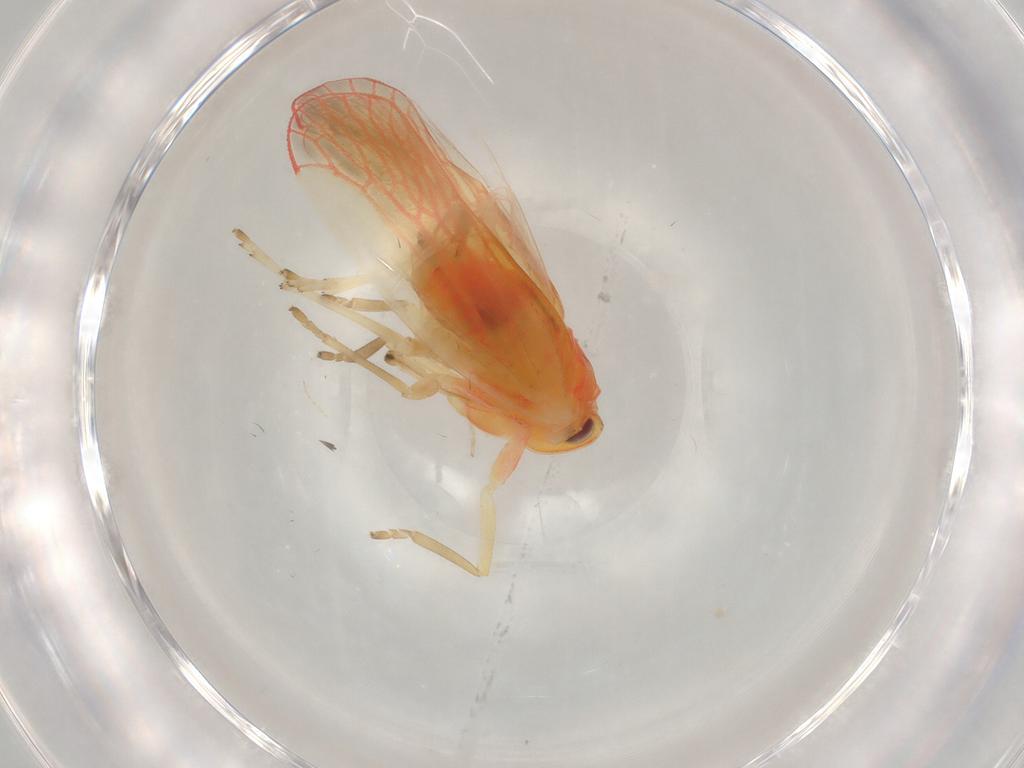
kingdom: Animalia
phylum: Arthropoda
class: Insecta
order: Hemiptera
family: Derbidae
